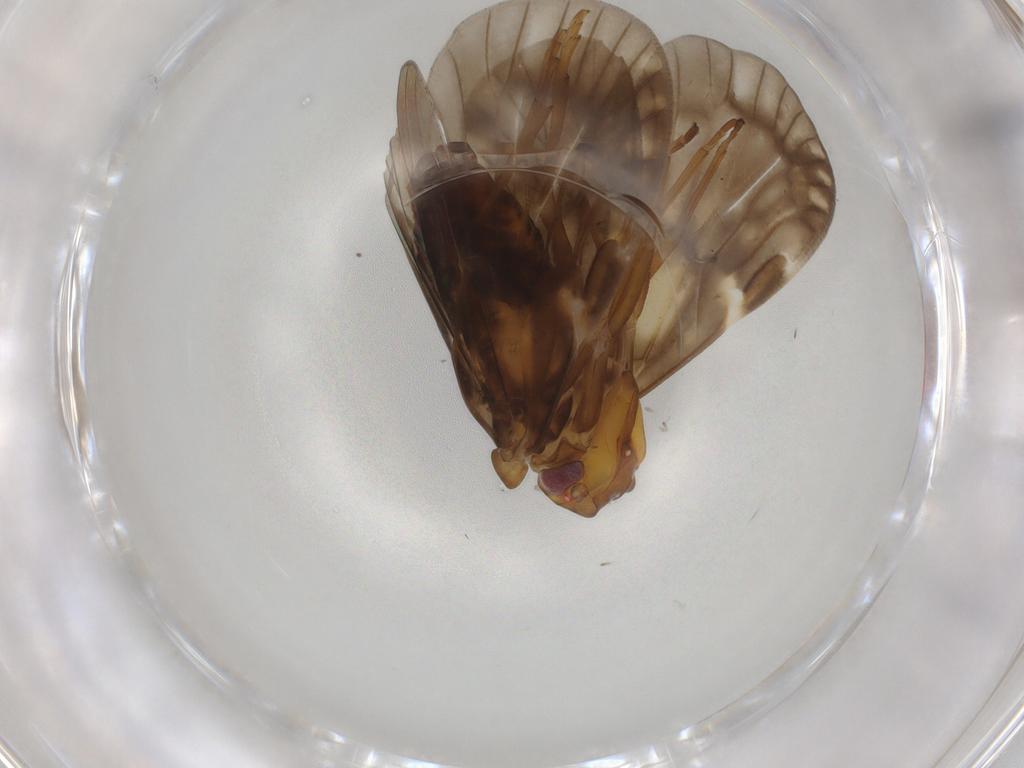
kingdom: Animalia
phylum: Arthropoda
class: Insecta
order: Hemiptera
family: Cixiidae
